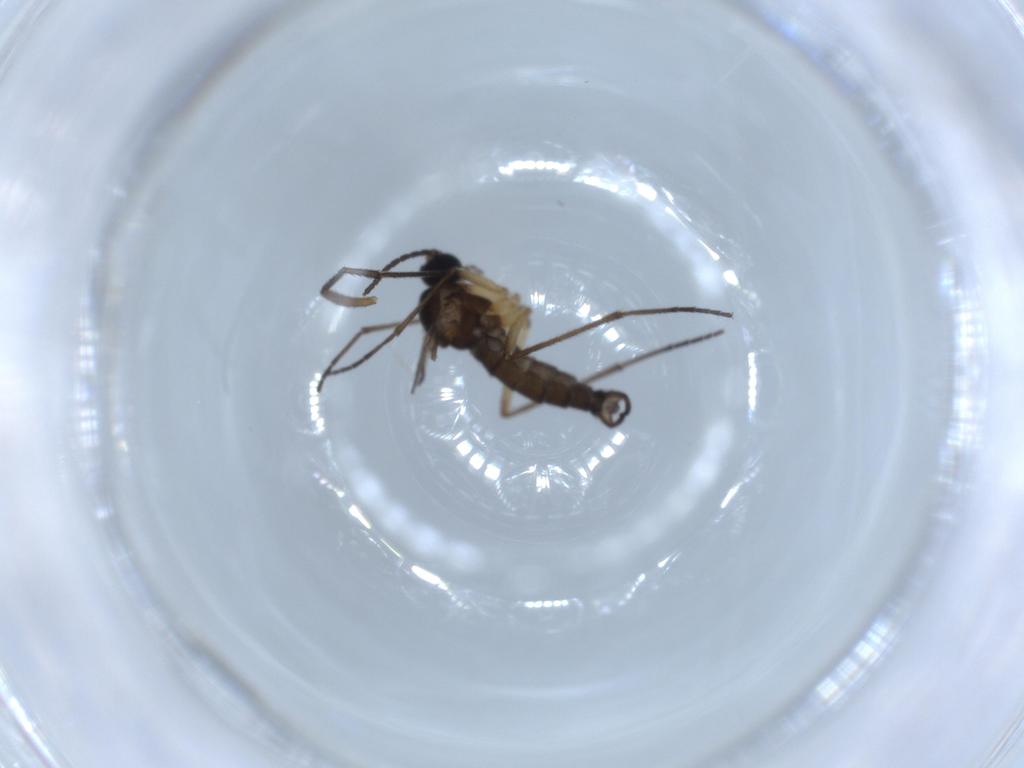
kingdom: Animalia
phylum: Arthropoda
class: Insecta
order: Diptera
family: Sciaridae
